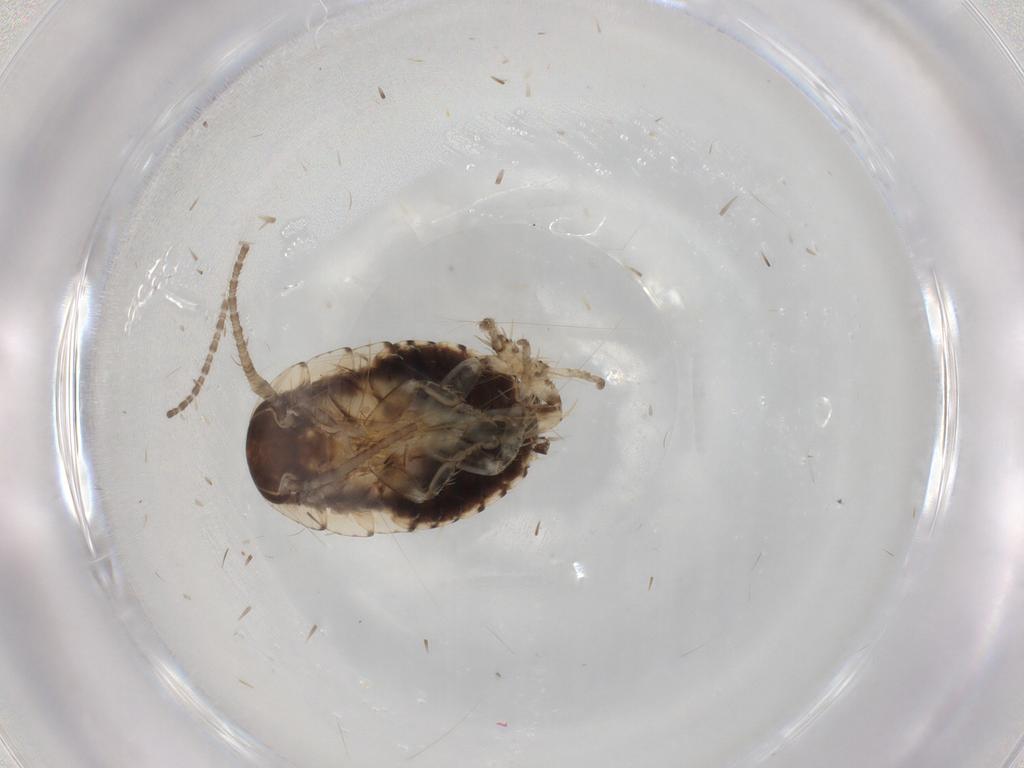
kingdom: Animalia
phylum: Arthropoda
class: Insecta
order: Blattodea
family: Blaberidae
